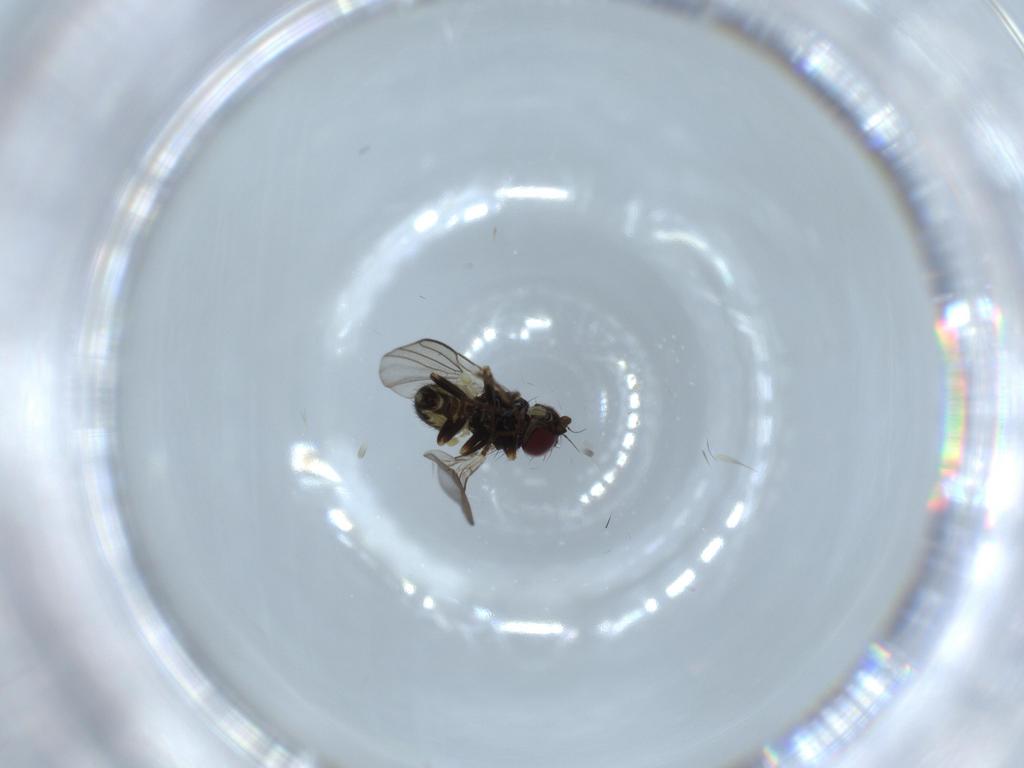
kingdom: Animalia
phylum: Arthropoda
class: Insecta
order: Diptera
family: Agromyzidae
